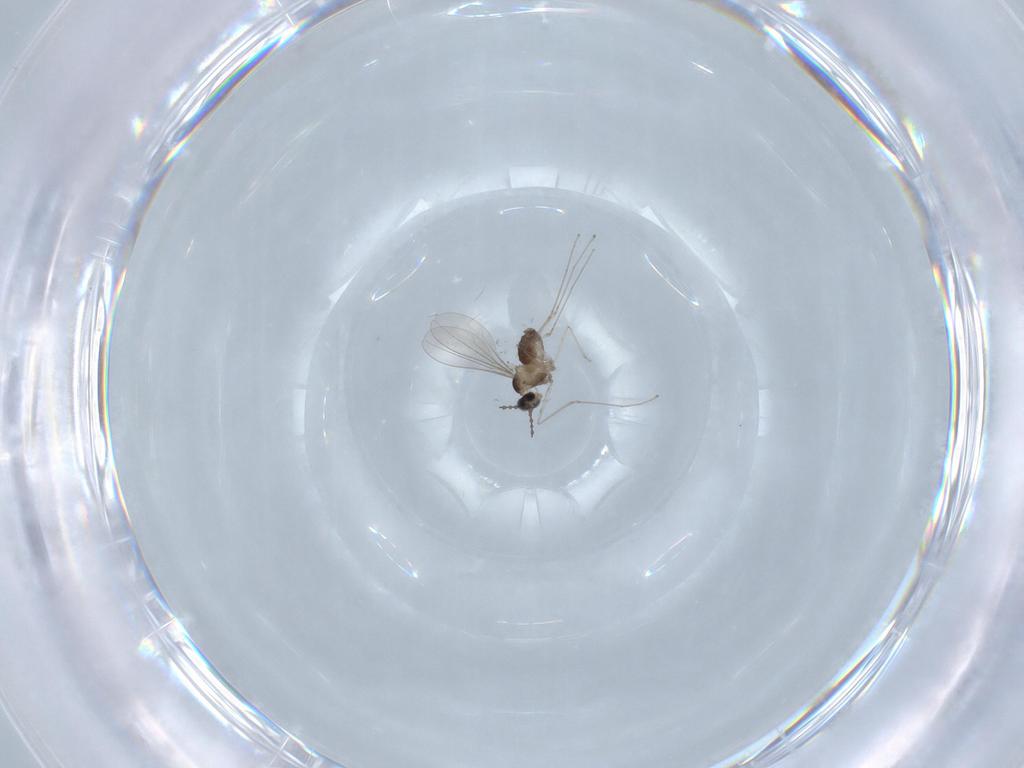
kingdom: Animalia
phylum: Arthropoda
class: Insecta
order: Diptera
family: Cecidomyiidae
